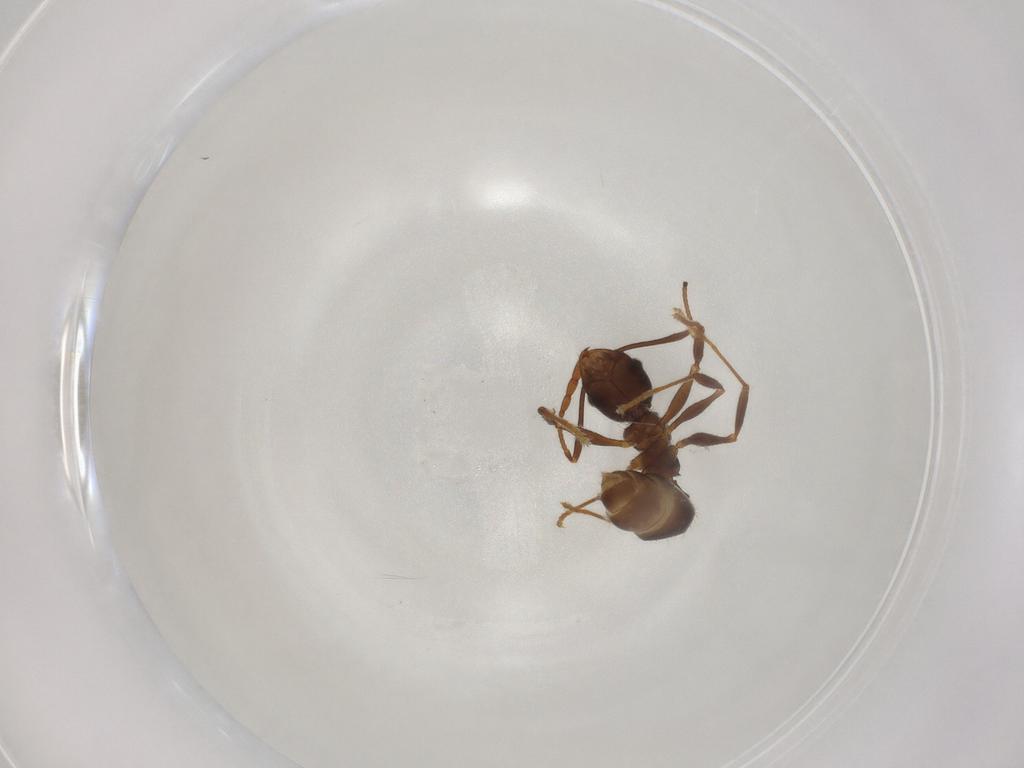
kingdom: Animalia
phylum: Arthropoda
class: Insecta
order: Hymenoptera
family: Formicidae
